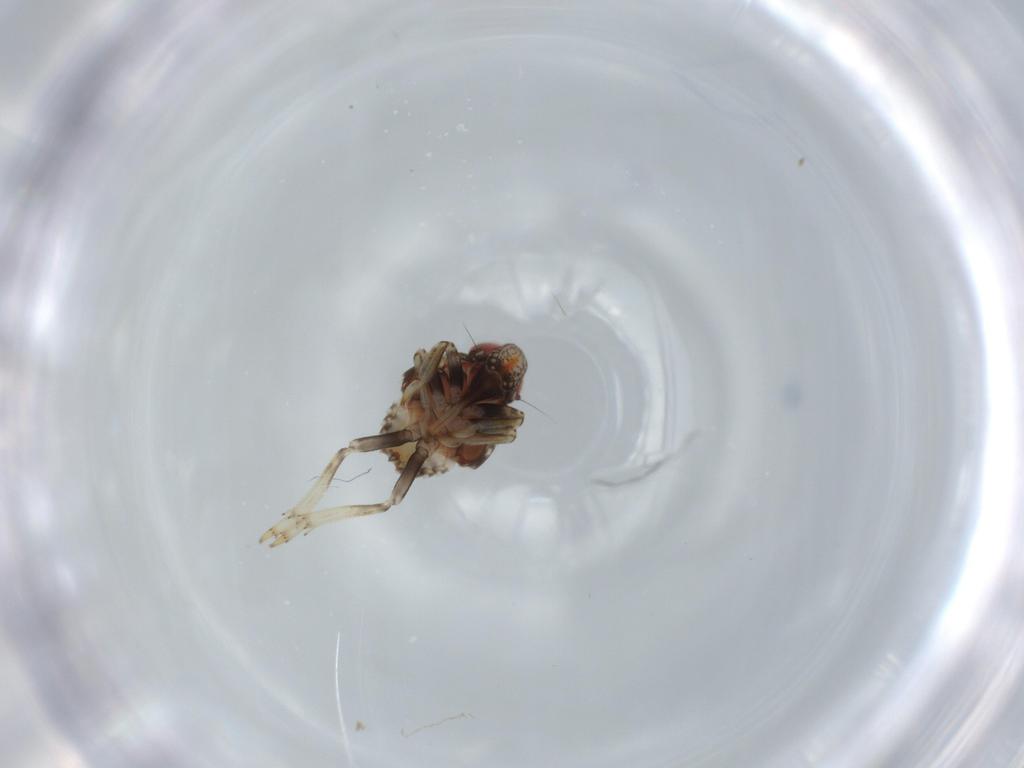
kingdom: Animalia
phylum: Arthropoda
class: Insecta
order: Hemiptera
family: Issidae
